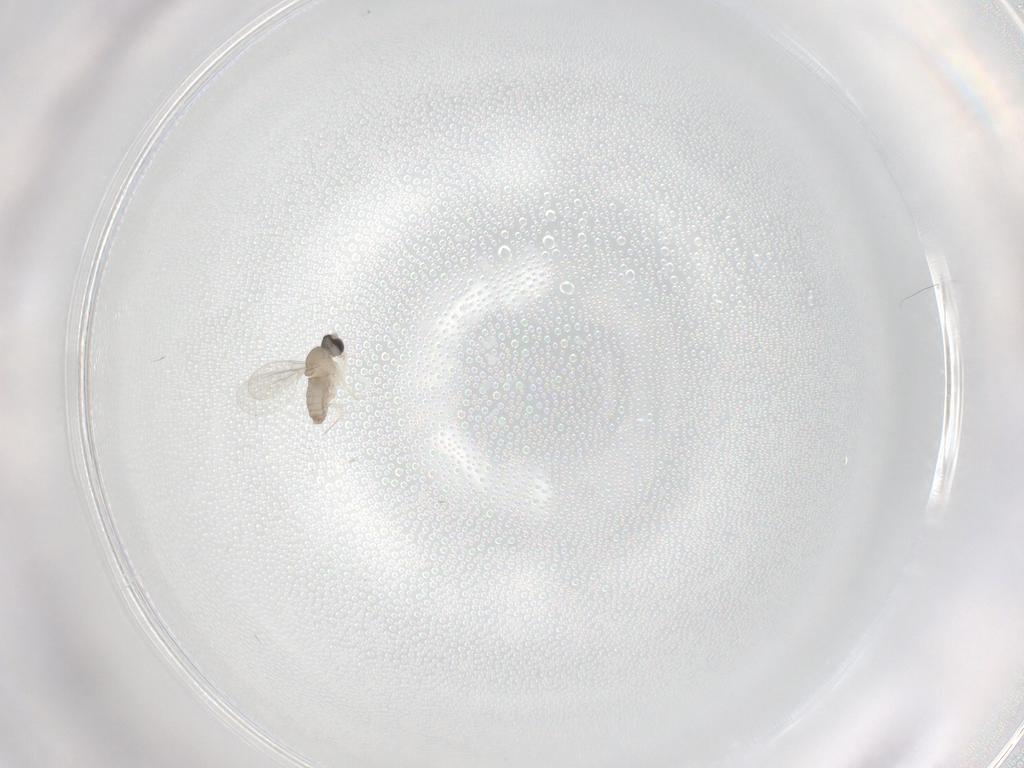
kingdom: Animalia
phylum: Arthropoda
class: Insecta
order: Diptera
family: Cecidomyiidae
